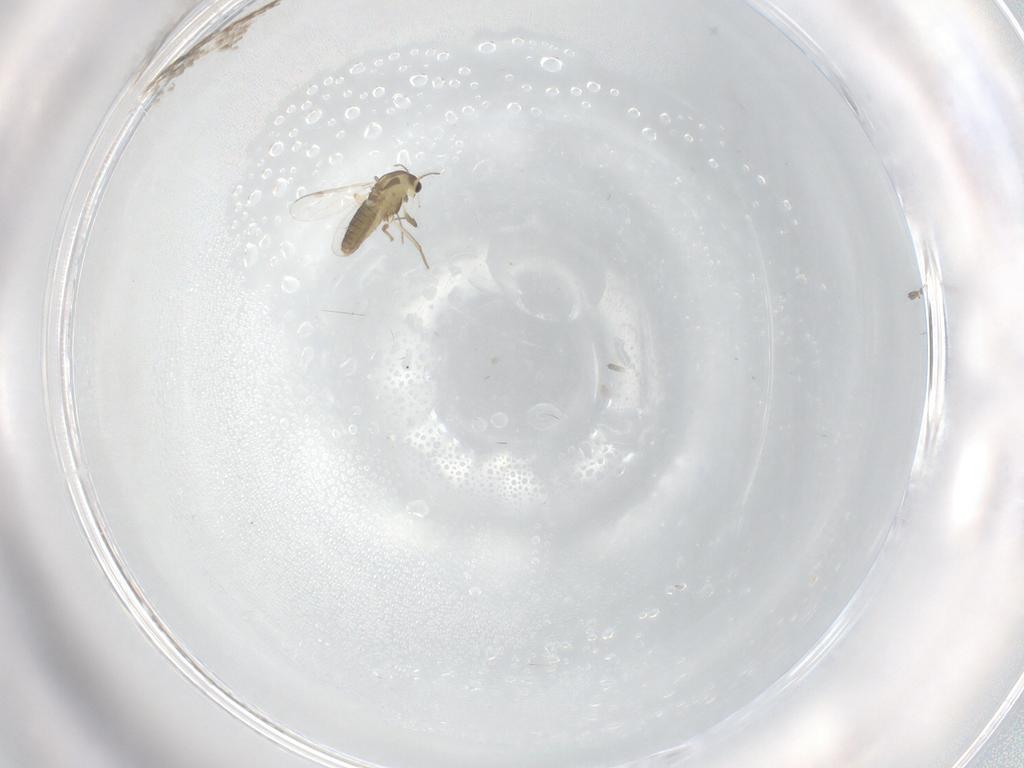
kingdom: Animalia
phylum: Arthropoda
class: Insecta
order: Diptera
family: Chironomidae
